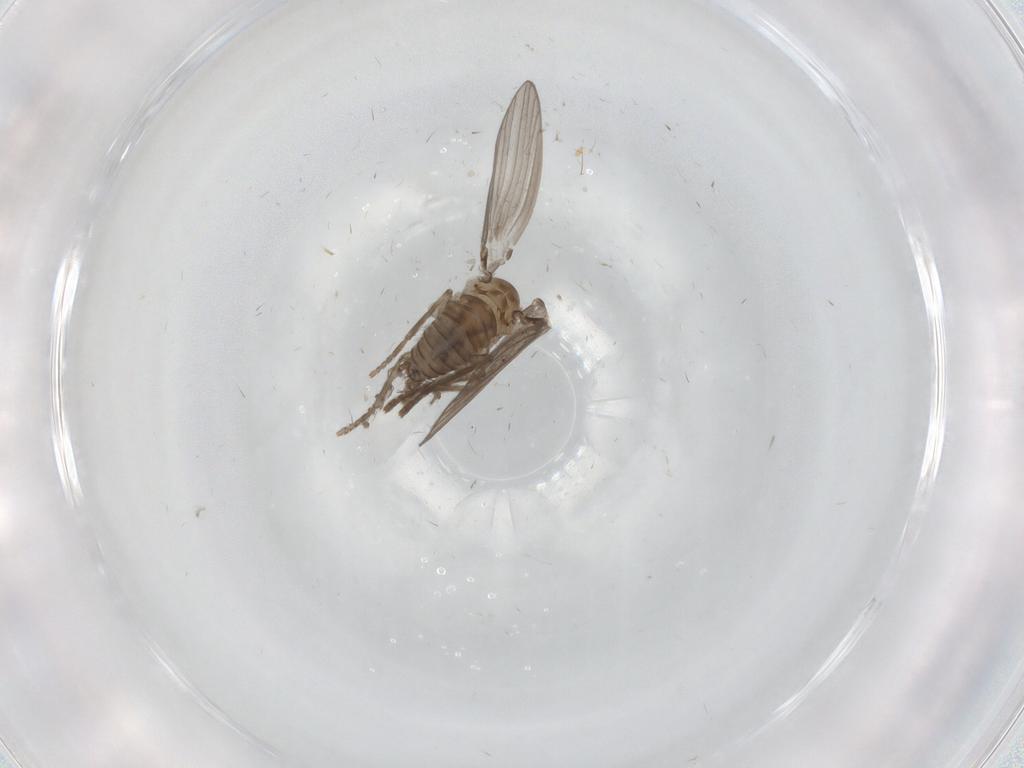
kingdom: Animalia
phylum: Arthropoda
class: Insecta
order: Diptera
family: Psychodidae
